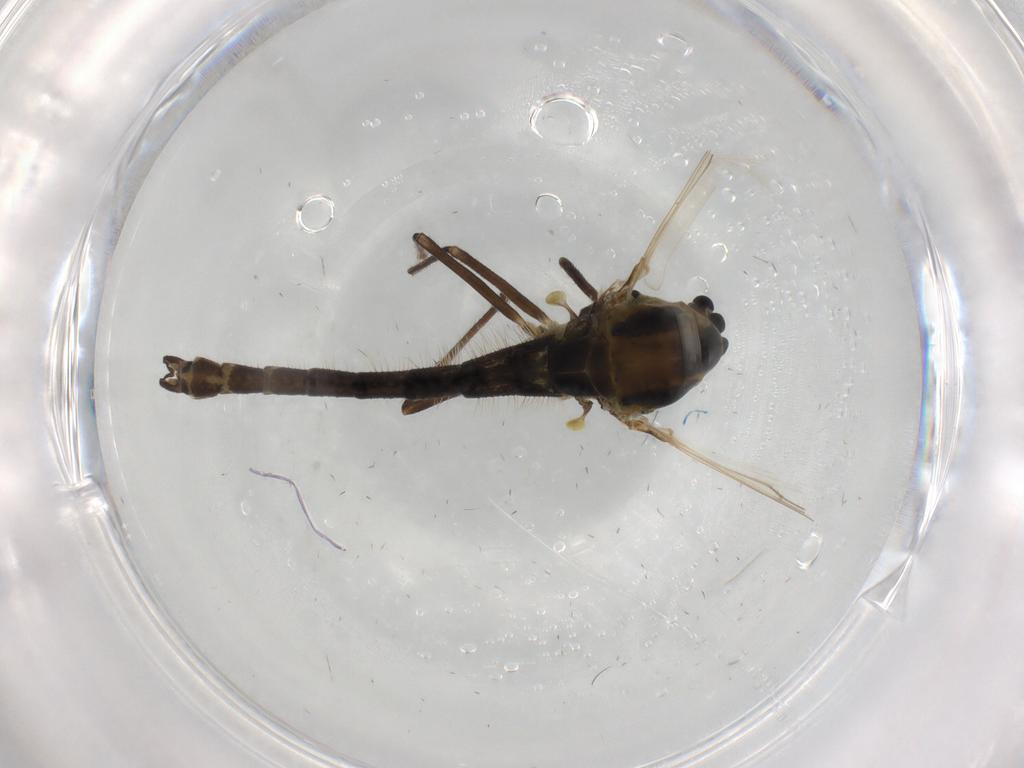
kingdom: Animalia
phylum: Arthropoda
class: Insecta
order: Diptera
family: Chironomidae
